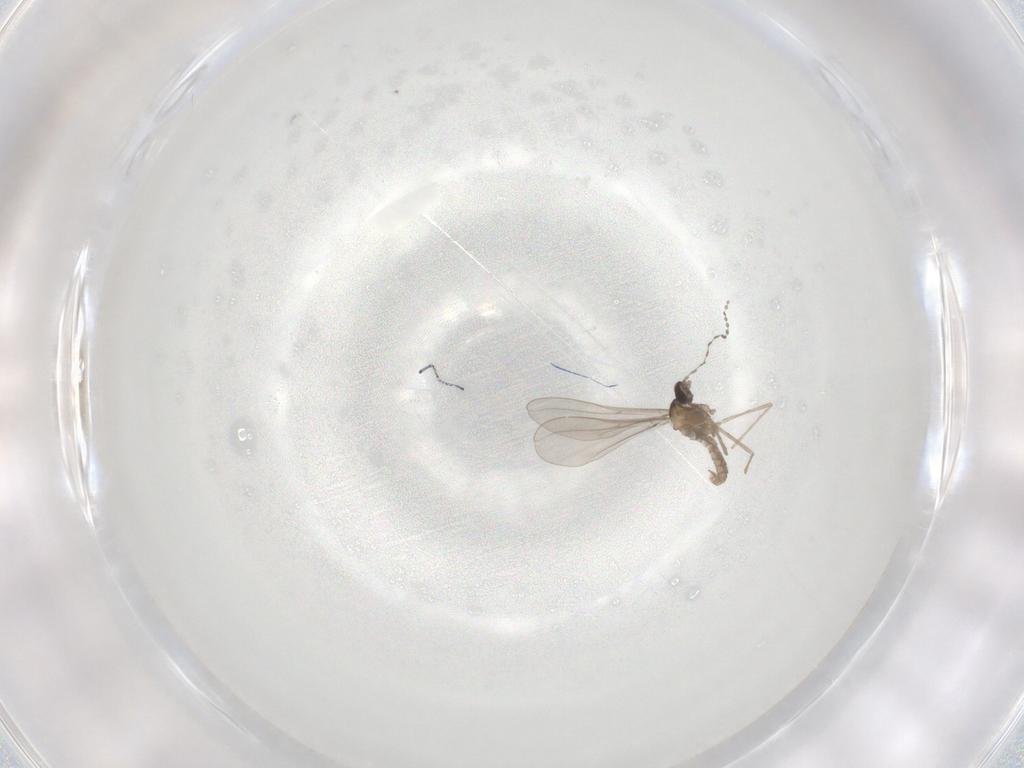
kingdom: Animalia
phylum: Arthropoda
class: Insecta
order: Diptera
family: Cecidomyiidae
